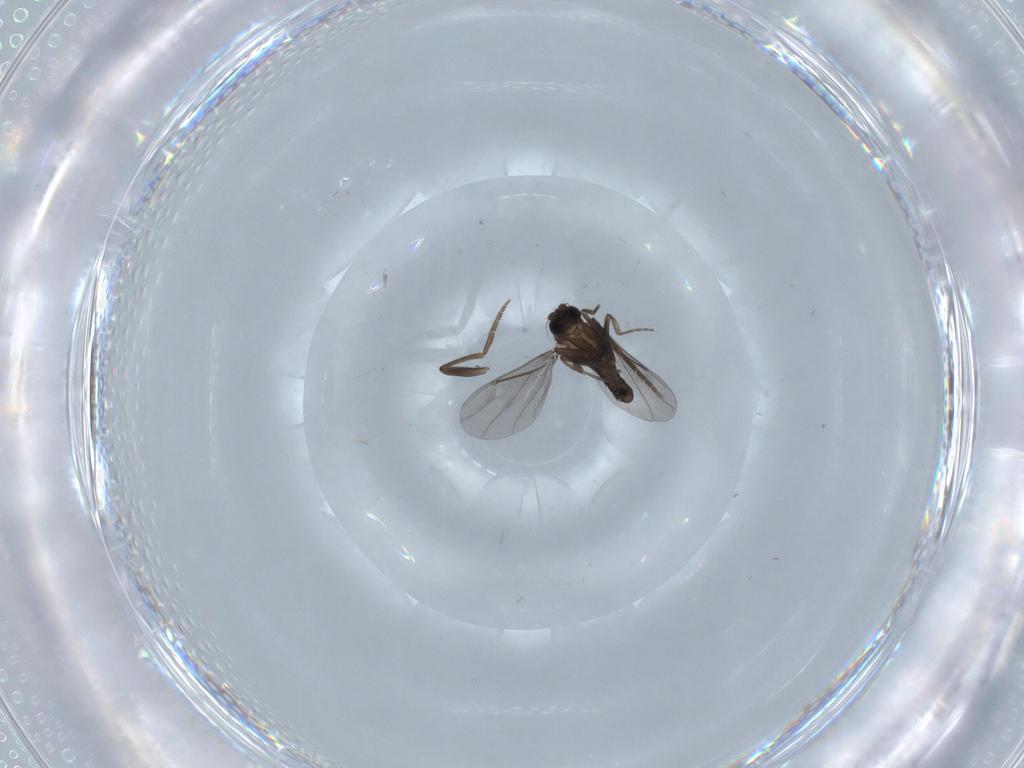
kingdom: Animalia
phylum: Arthropoda
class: Insecta
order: Diptera
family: Phoridae
